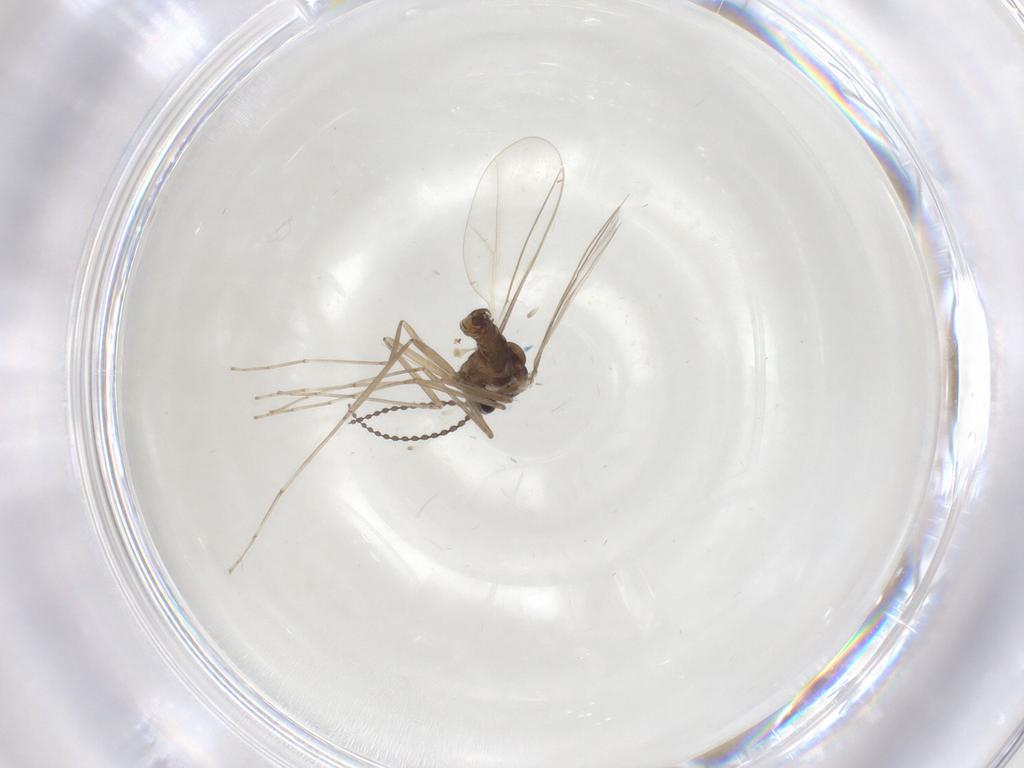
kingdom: Animalia
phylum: Arthropoda
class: Insecta
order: Diptera
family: Cecidomyiidae
